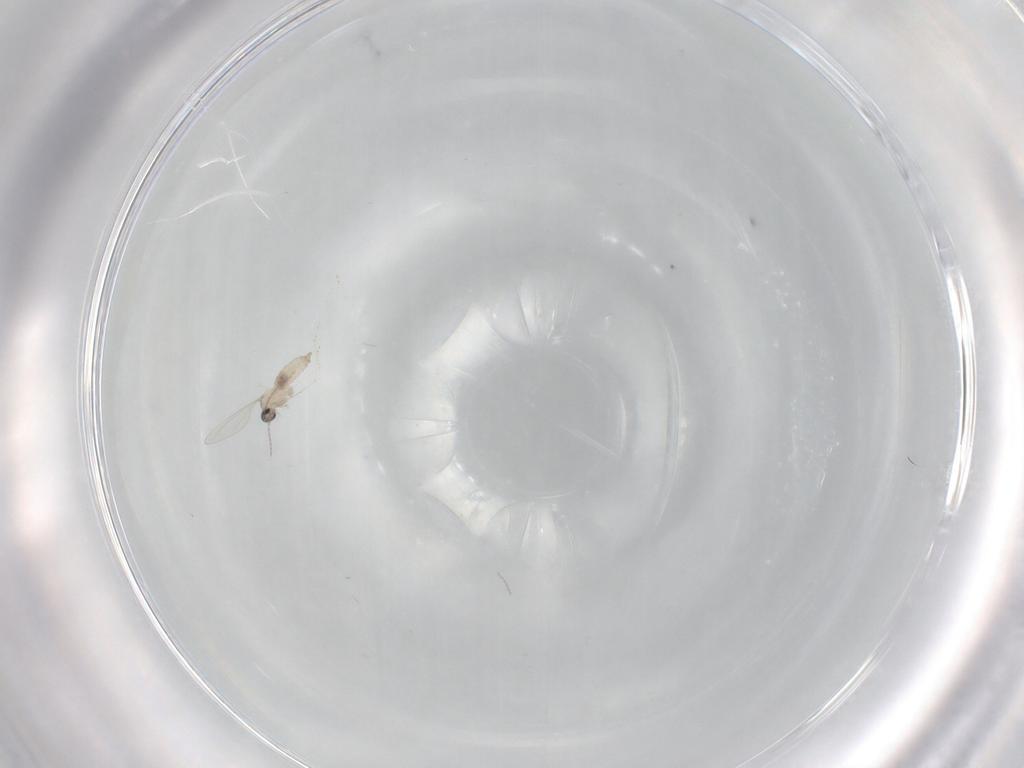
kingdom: Animalia
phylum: Arthropoda
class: Insecta
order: Diptera
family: Cecidomyiidae
